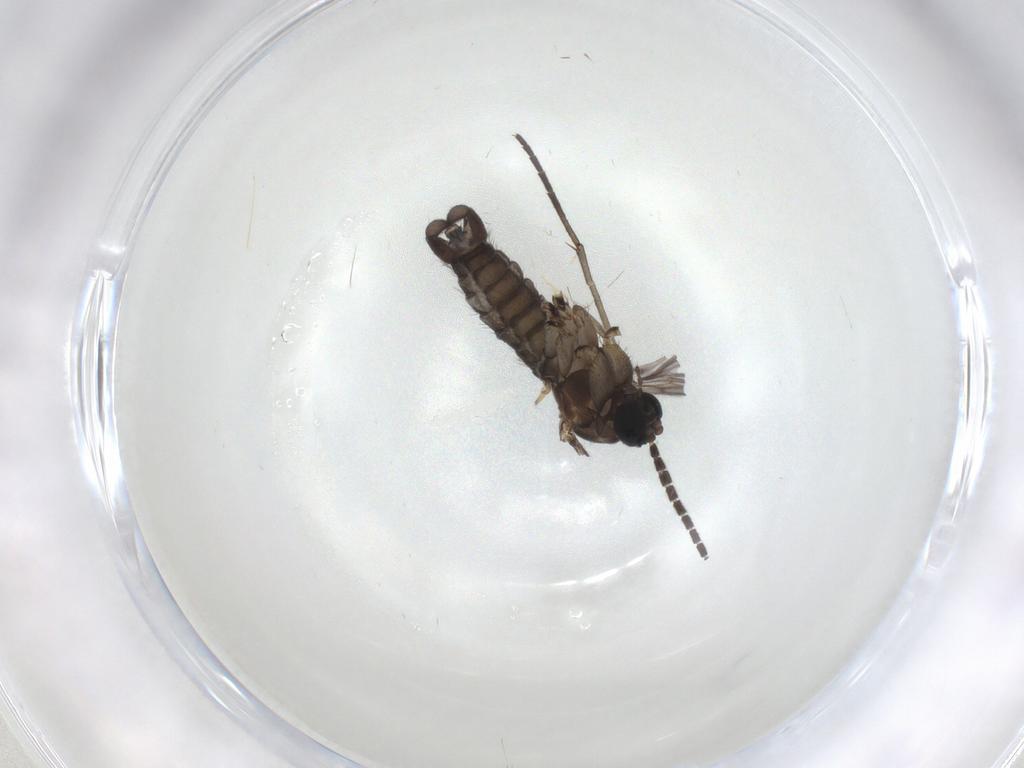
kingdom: Animalia
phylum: Arthropoda
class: Insecta
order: Diptera
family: Sciaridae
